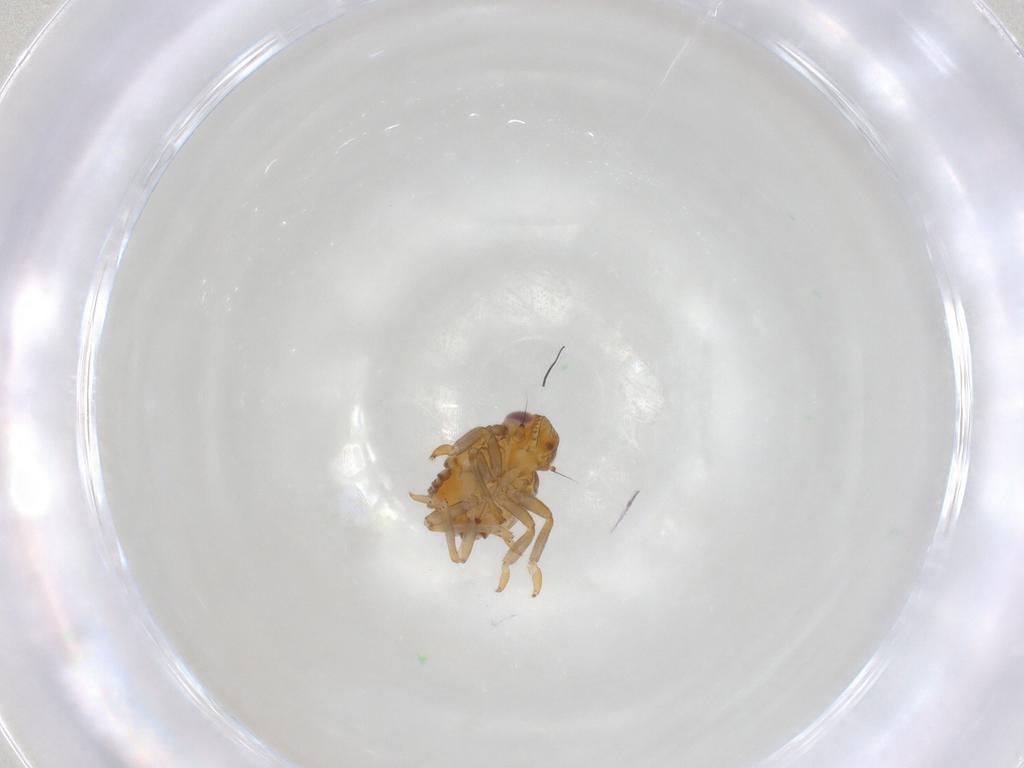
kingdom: Animalia
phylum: Arthropoda
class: Insecta
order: Hemiptera
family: Issidae
